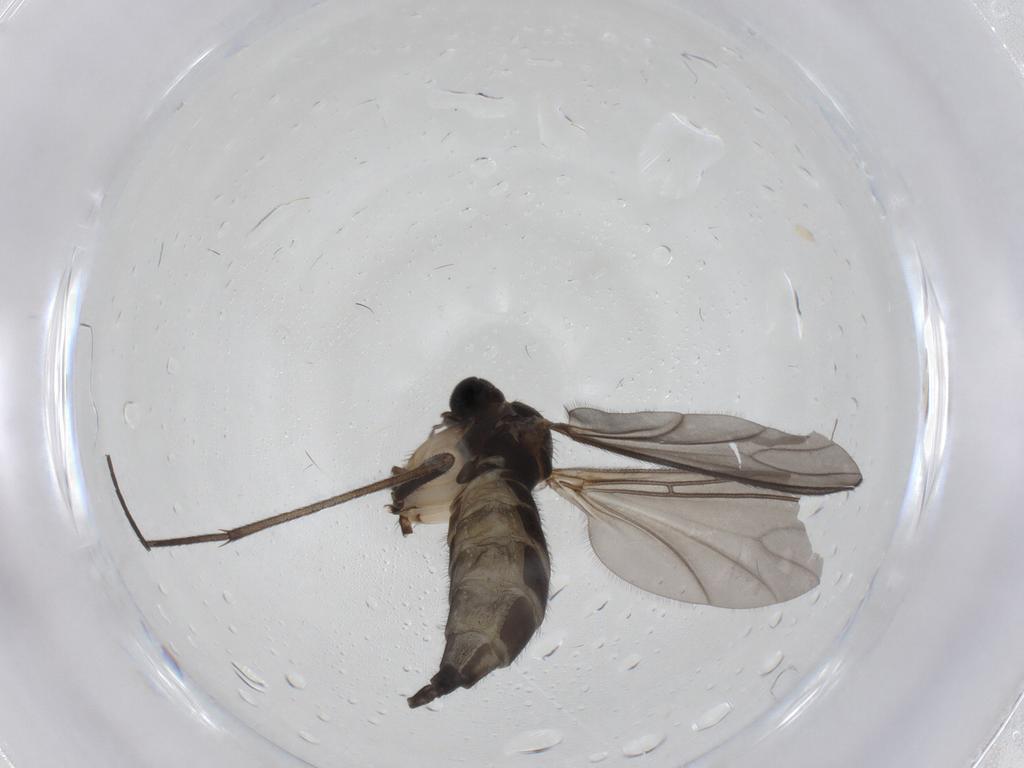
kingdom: Animalia
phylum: Arthropoda
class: Insecta
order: Diptera
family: Sciaridae
